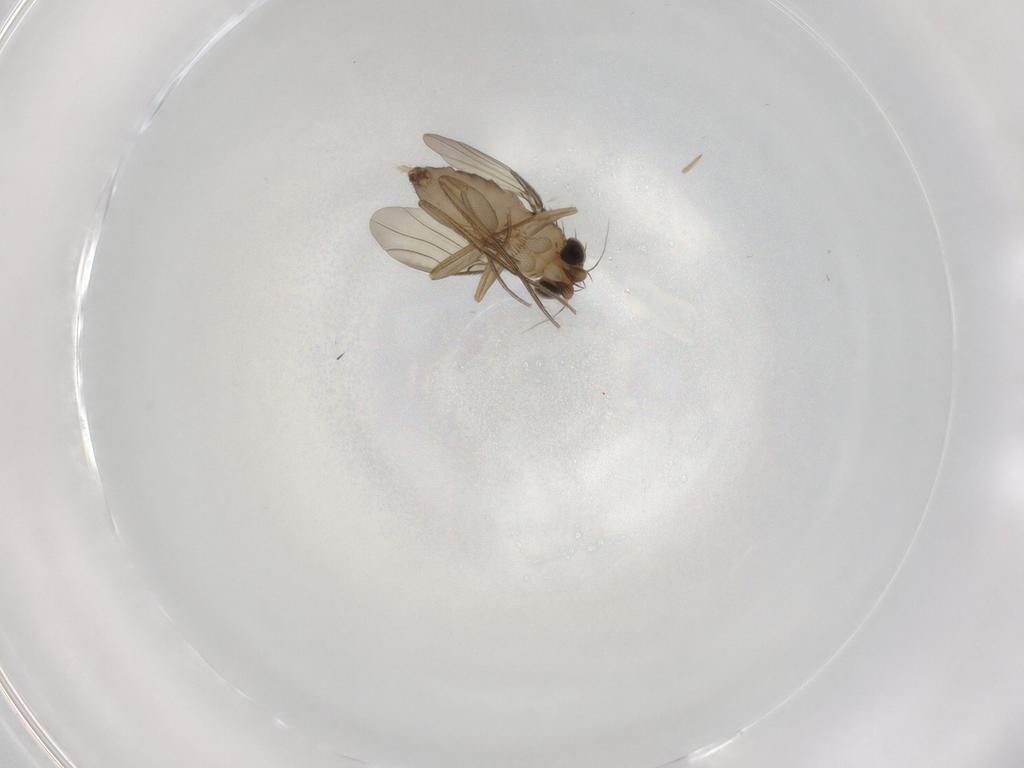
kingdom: Animalia
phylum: Arthropoda
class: Insecta
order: Diptera
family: Phoridae
